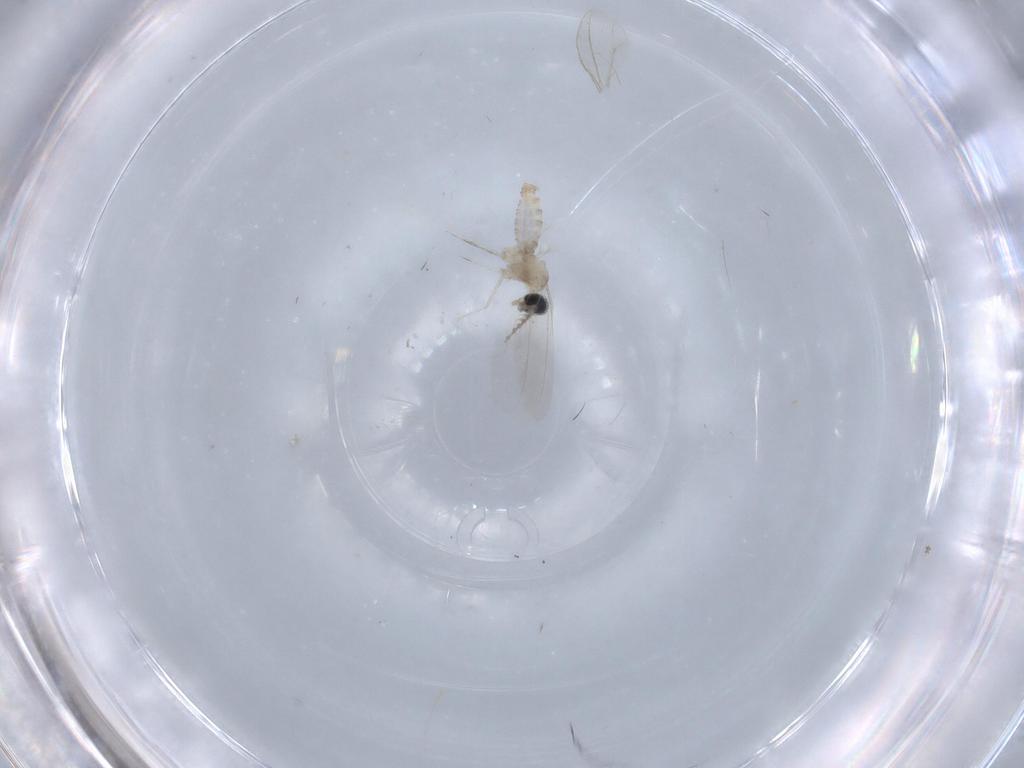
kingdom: Animalia
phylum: Arthropoda
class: Insecta
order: Diptera
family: Cecidomyiidae
